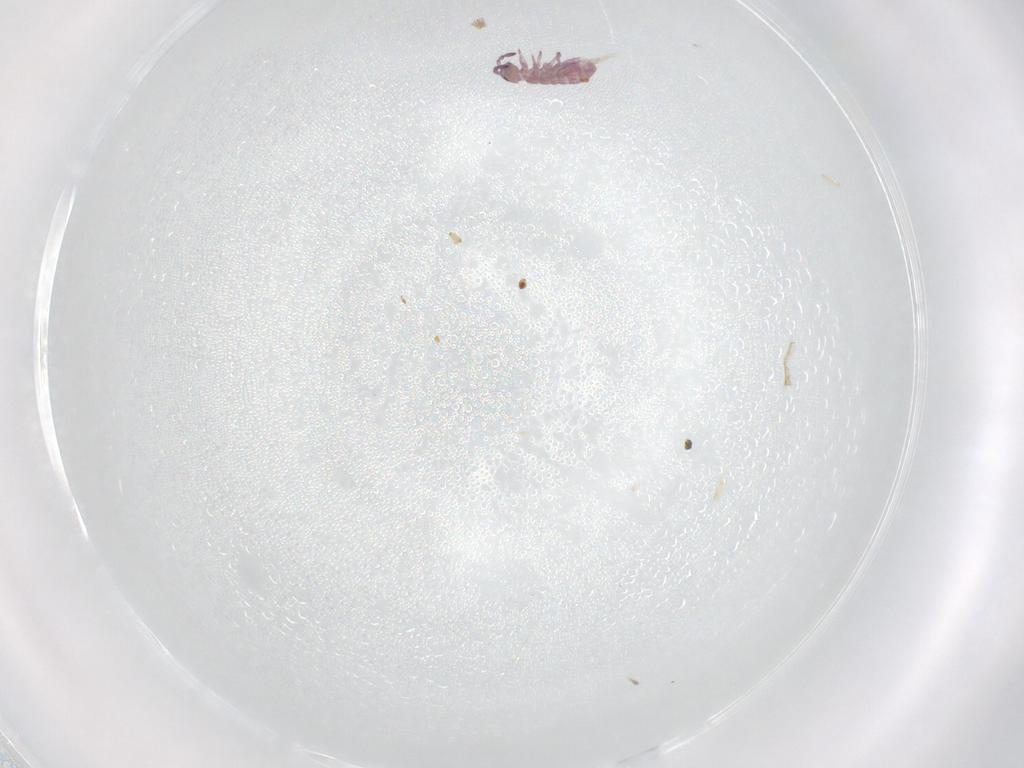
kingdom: Animalia
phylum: Arthropoda
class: Collembola
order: Entomobryomorpha
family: Isotomidae
